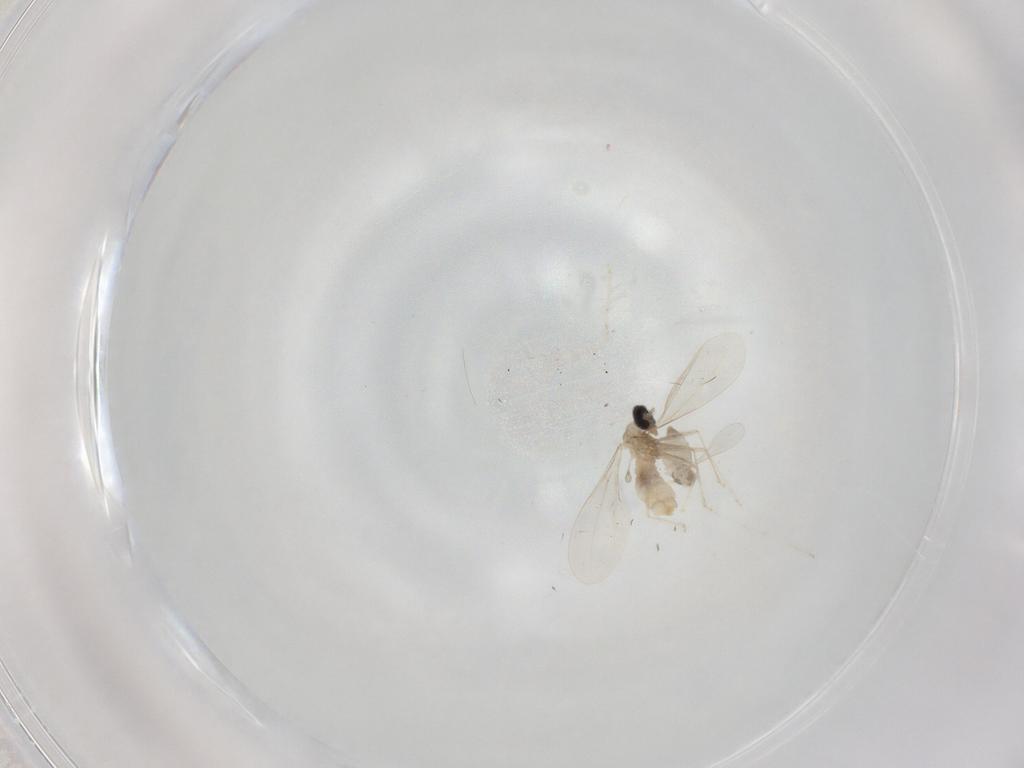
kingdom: Animalia
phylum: Arthropoda
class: Insecta
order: Diptera
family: Cecidomyiidae
